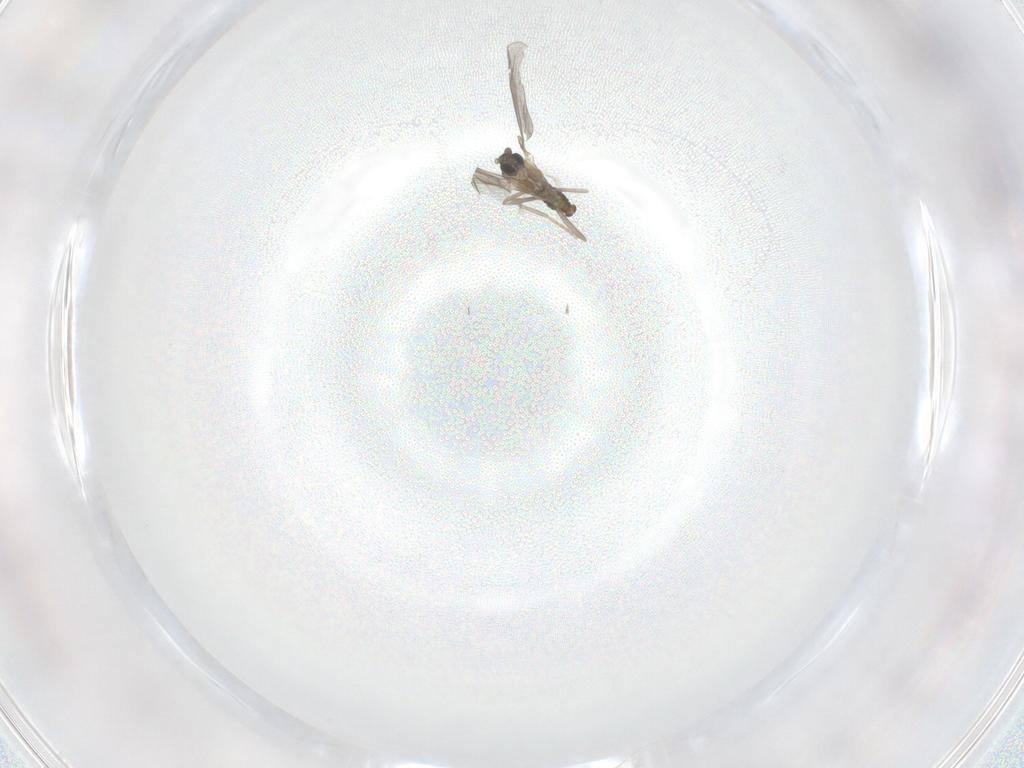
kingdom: Animalia
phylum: Arthropoda
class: Insecta
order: Diptera
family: Cecidomyiidae
